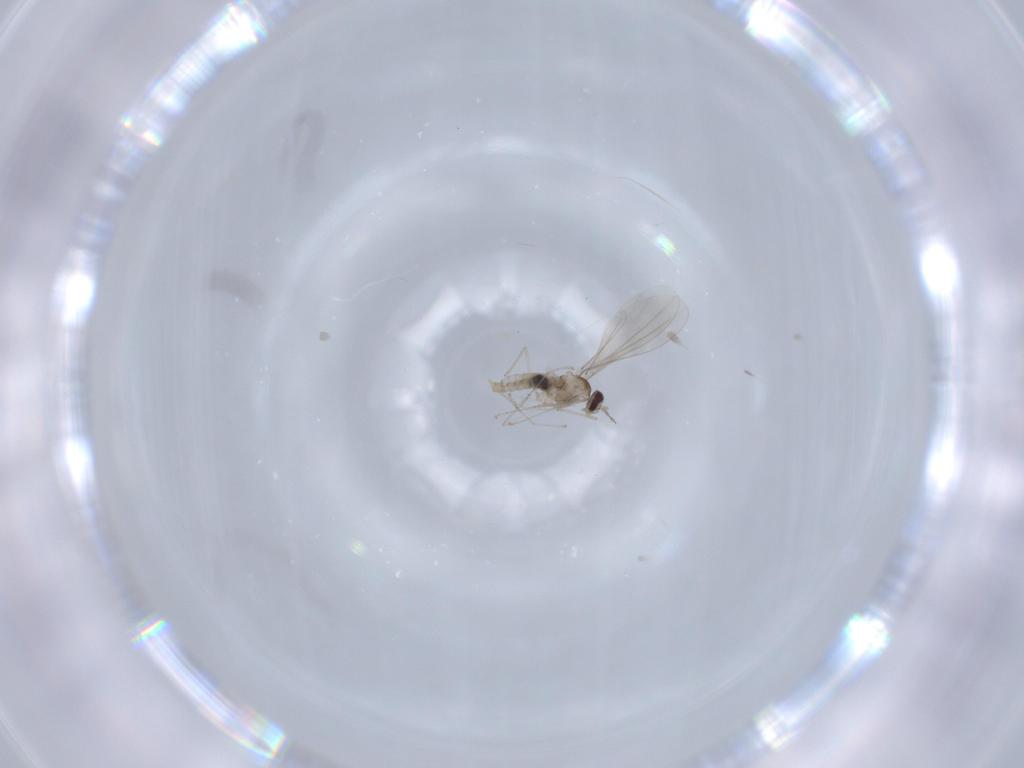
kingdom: Animalia
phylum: Arthropoda
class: Insecta
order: Diptera
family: Cecidomyiidae
